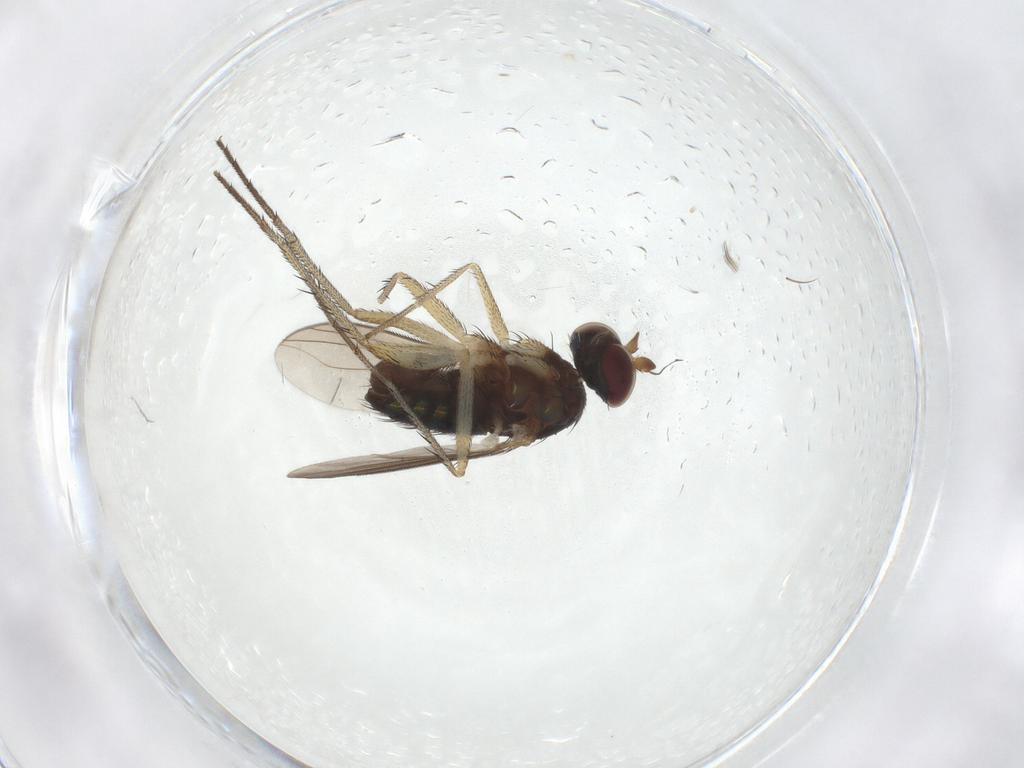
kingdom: Animalia
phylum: Arthropoda
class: Insecta
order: Diptera
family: Dolichopodidae
